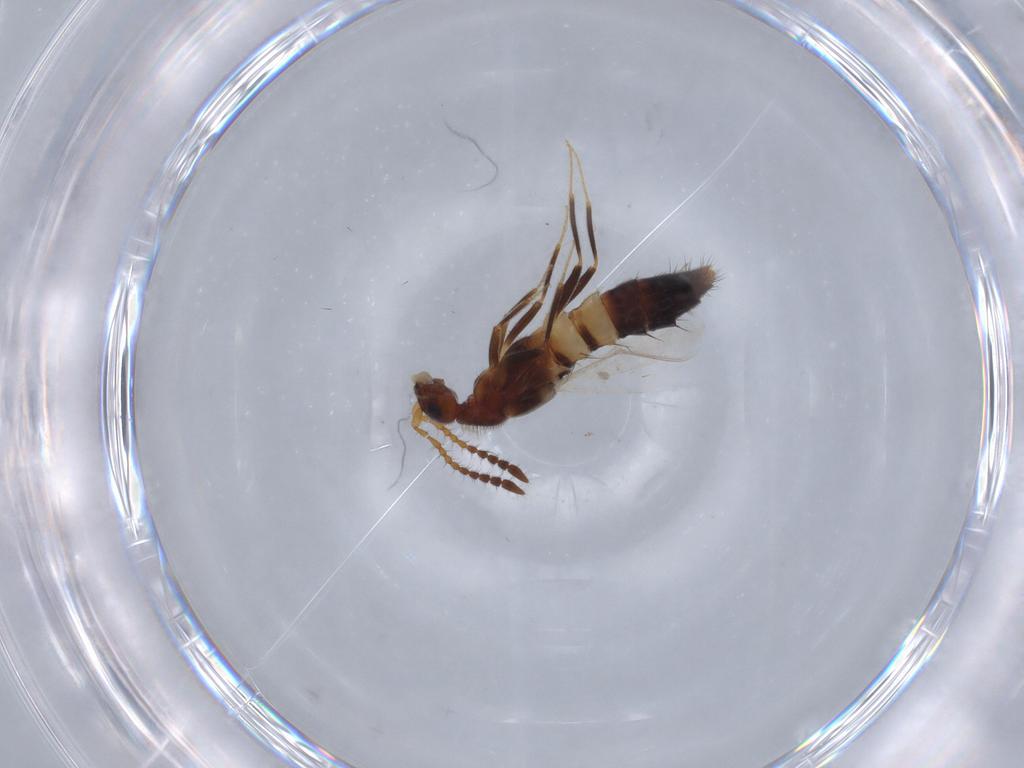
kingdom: Animalia
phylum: Arthropoda
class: Insecta
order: Coleoptera
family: Staphylinidae
